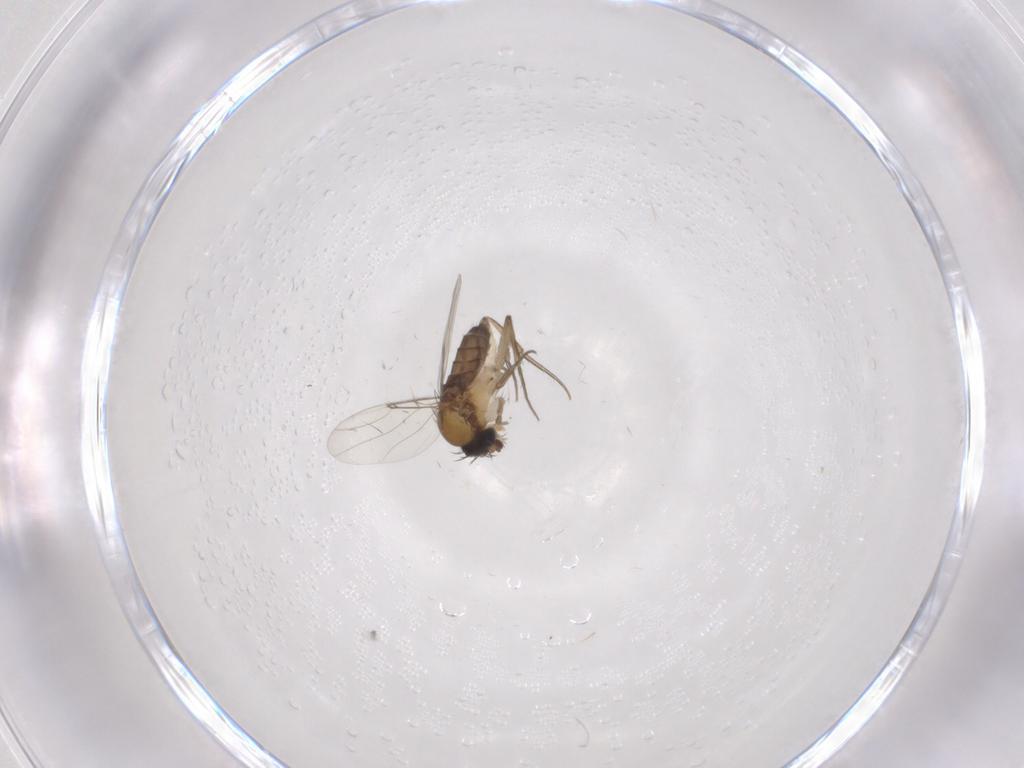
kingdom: Animalia
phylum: Arthropoda
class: Insecta
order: Diptera
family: Phoridae
